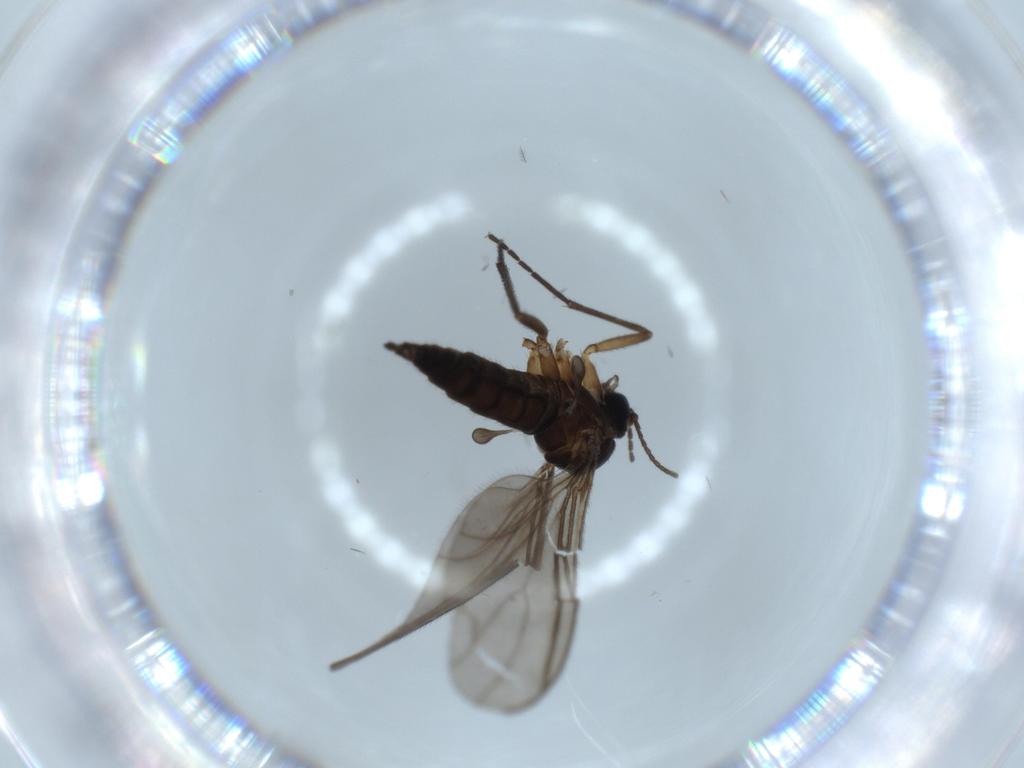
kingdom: Animalia
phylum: Arthropoda
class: Insecta
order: Diptera
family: Sciaridae
